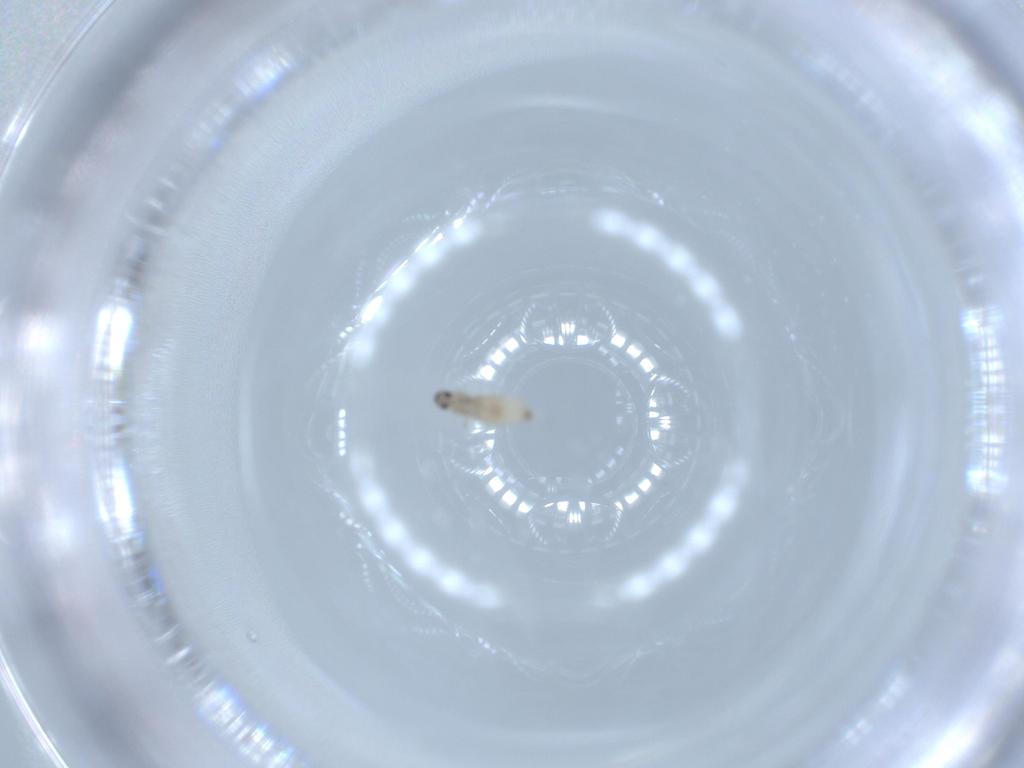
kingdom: Animalia
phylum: Arthropoda
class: Insecta
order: Diptera
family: Cecidomyiidae
